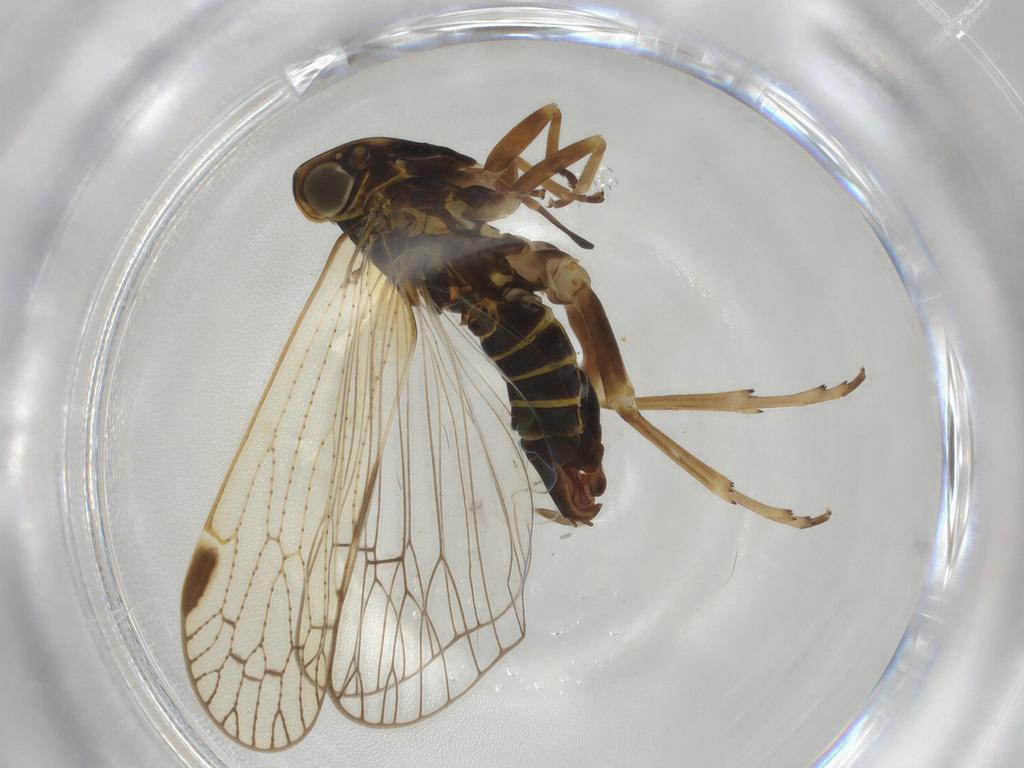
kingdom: Animalia
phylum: Arthropoda
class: Insecta
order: Hemiptera
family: Cixiidae
